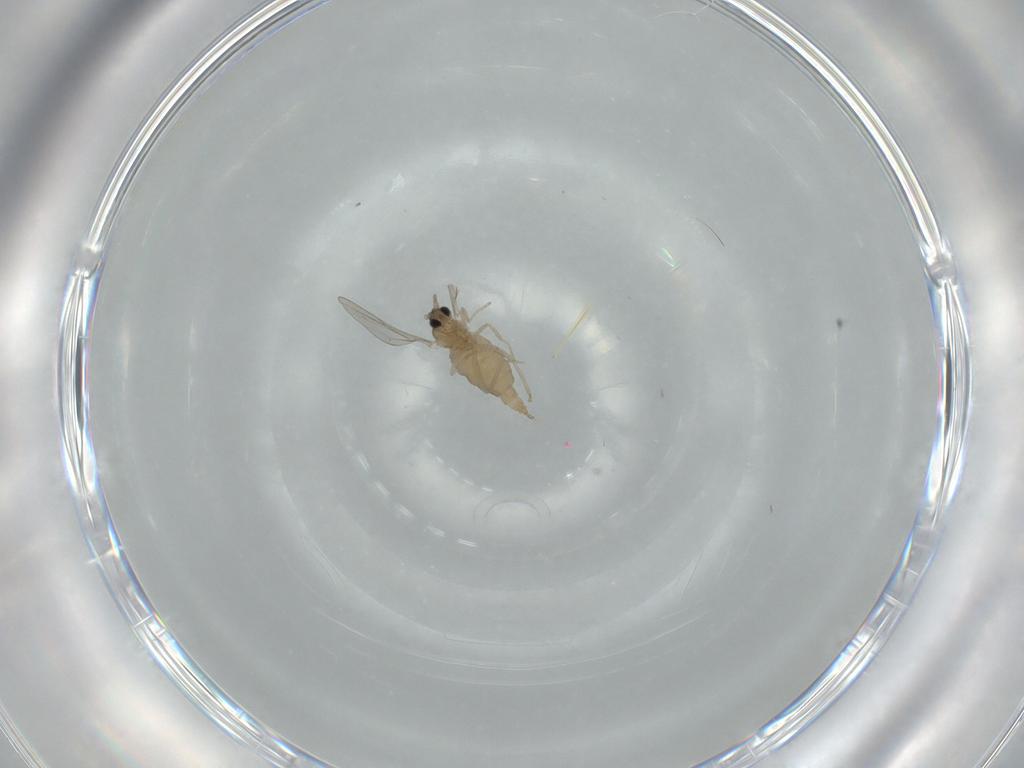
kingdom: Animalia
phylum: Arthropoda
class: Insecta
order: Diptera
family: Cecidomyiidae
